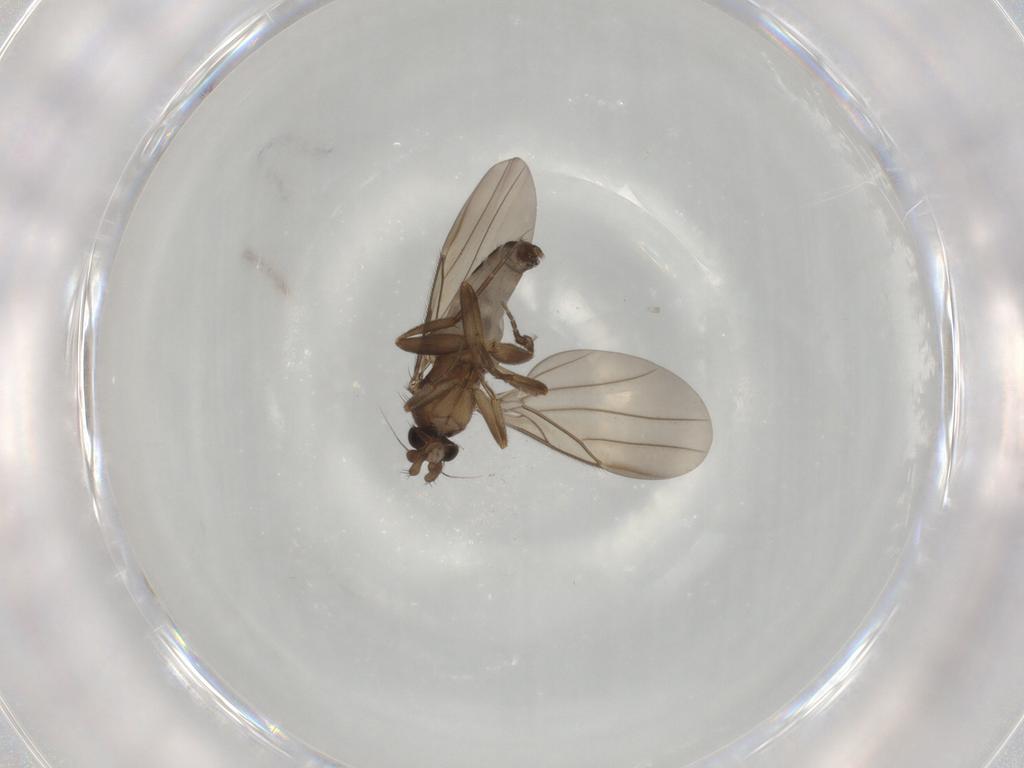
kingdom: Animalia
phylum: Arthropoda
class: Insecta
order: Diptera
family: Phoridae
